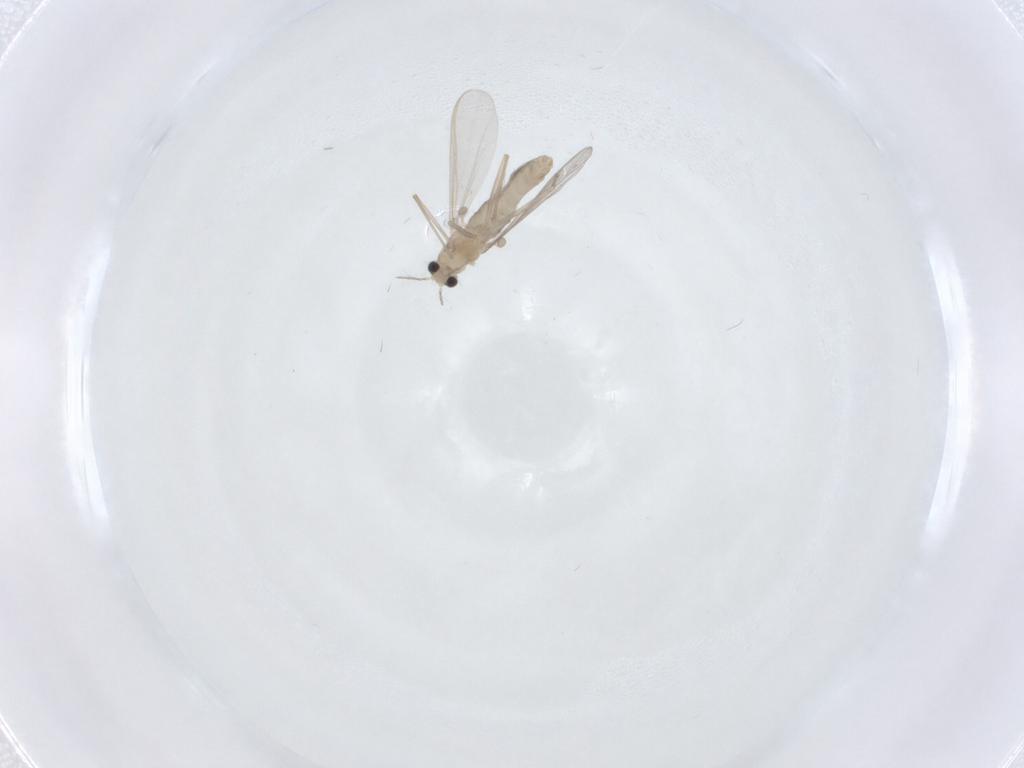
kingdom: Animalia
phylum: Arthropoda
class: Insecta
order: Diptera
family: Chironomidae
